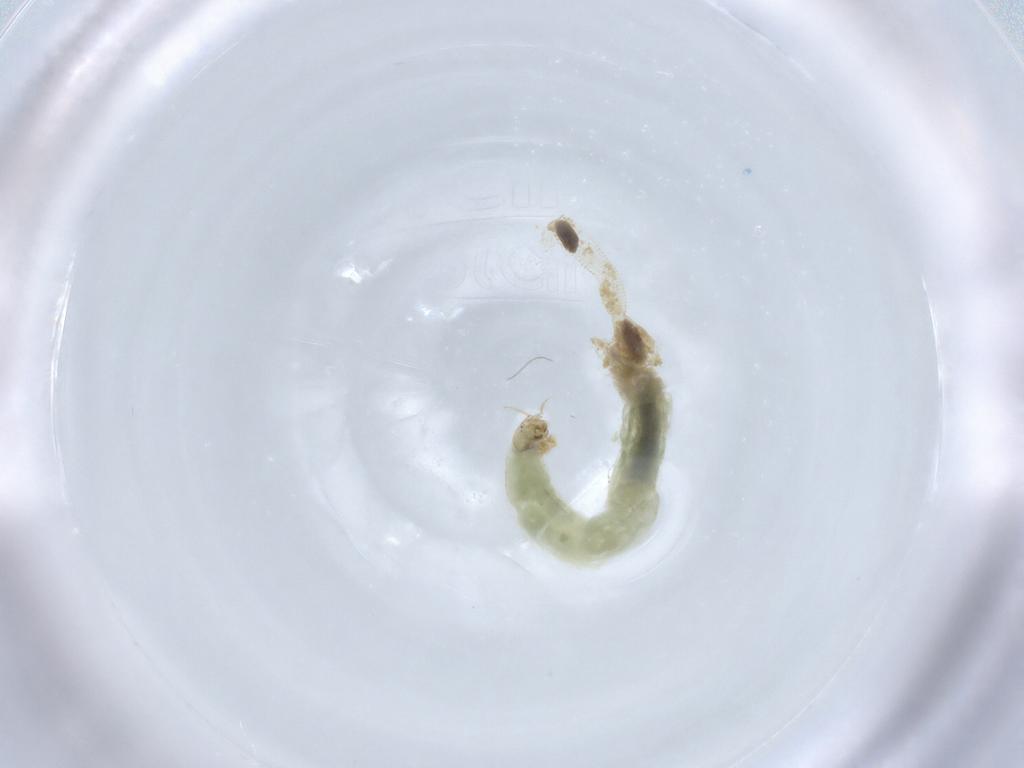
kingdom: Animalia
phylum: Arthropoda
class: Insecta
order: Diptera
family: Chironomidae
